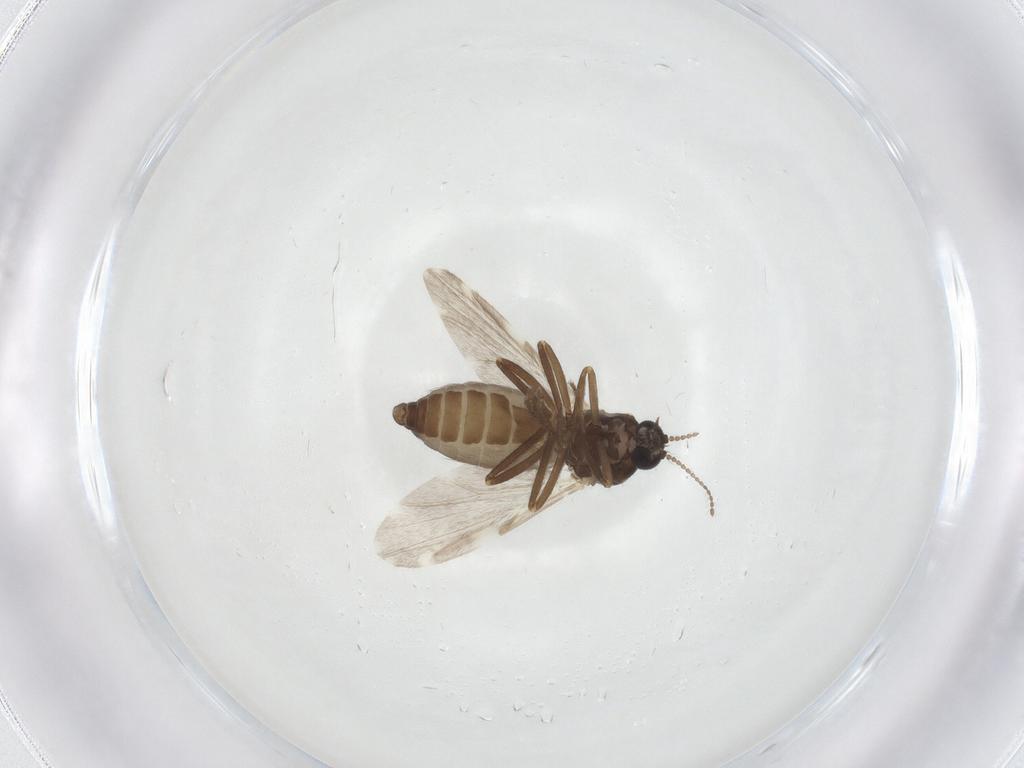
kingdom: Animalia
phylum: Arthropoda
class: Insecta
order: Diptera
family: Ceratopogonidae
